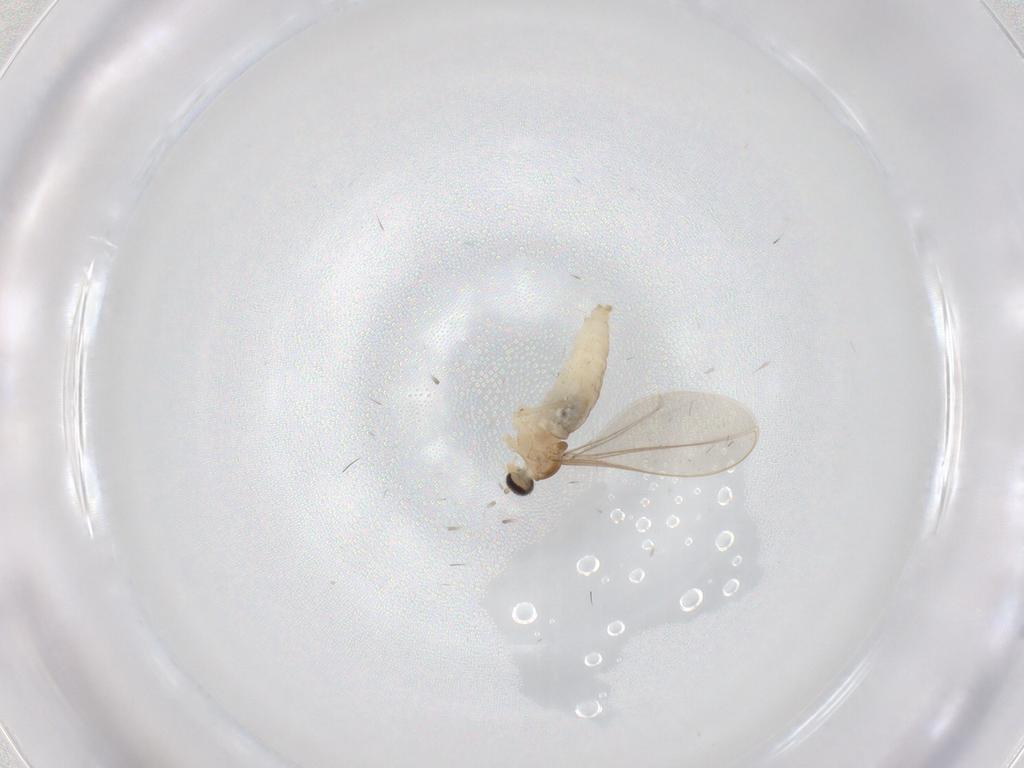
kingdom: Animalia
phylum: Arthropoda
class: Insecta
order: Diptera
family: Cecidomyiidae
